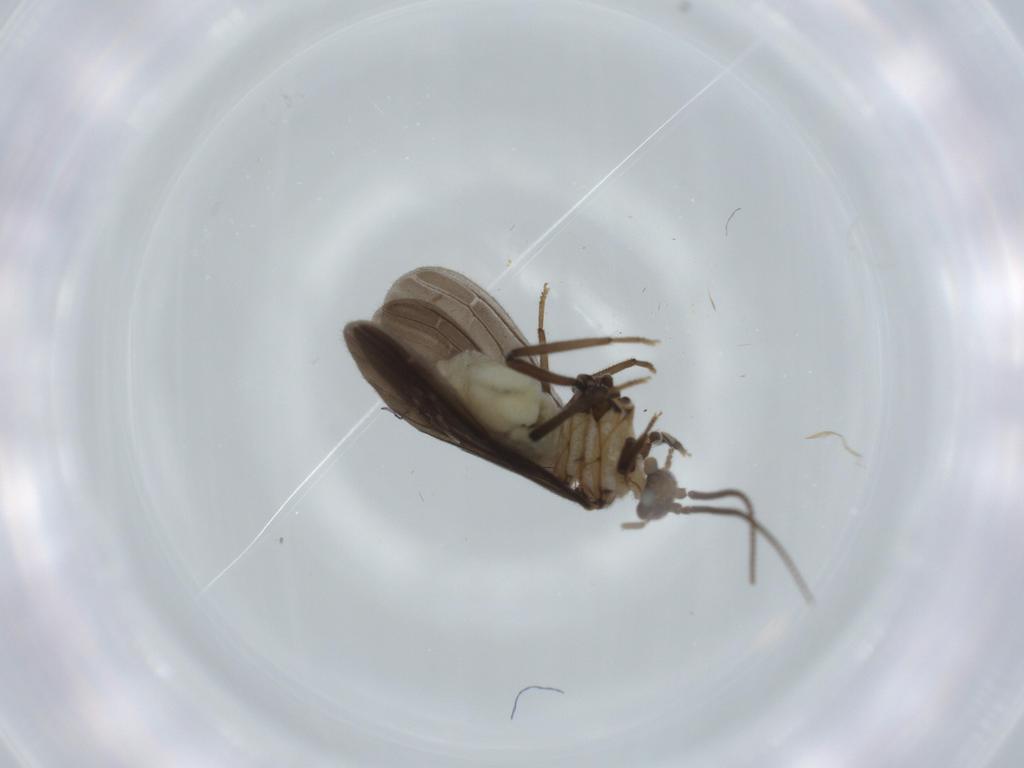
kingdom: Animalia
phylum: Arthropoda
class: Insecta
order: Neuroptera
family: Coniopterygidae
